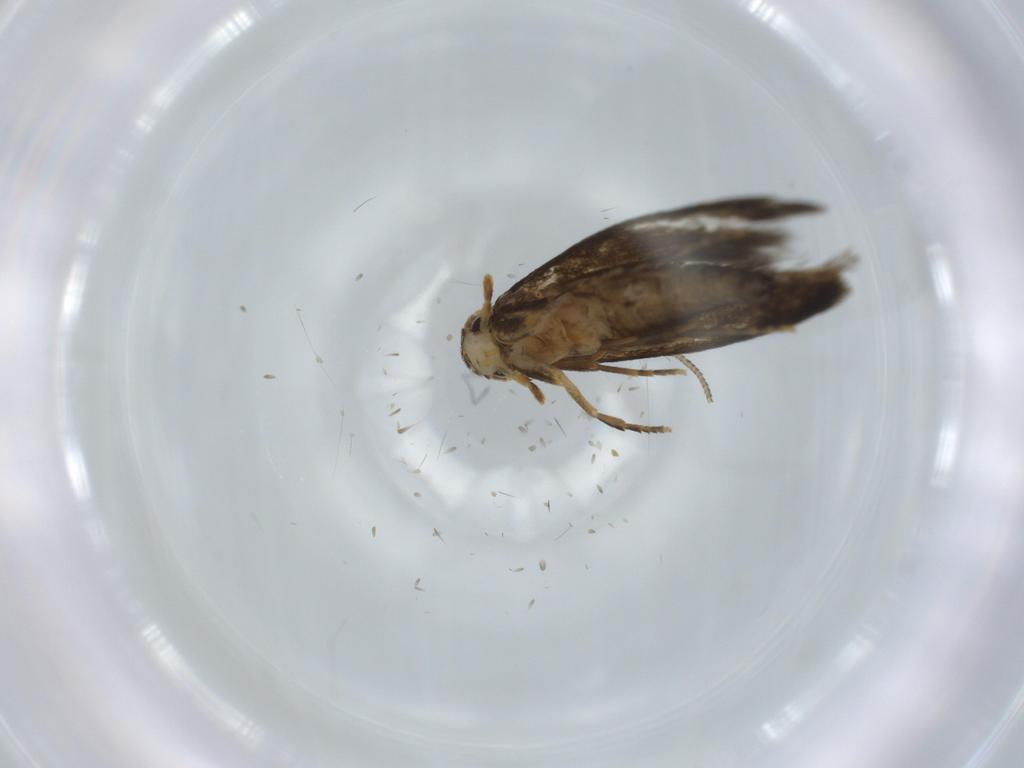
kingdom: Animalia
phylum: Arthropoda
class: Insecta
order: Lepidoptera
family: Tineidae
